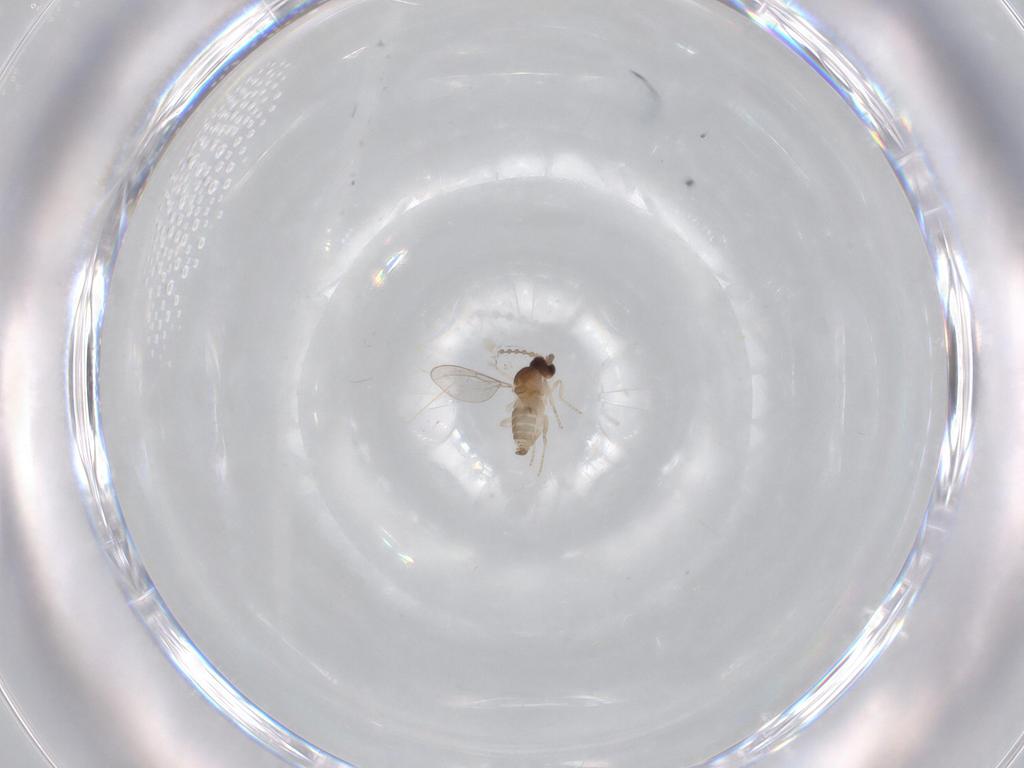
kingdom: Animalia
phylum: Arthropoda
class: Insecta
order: Diptera
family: Cecidomyiidae
